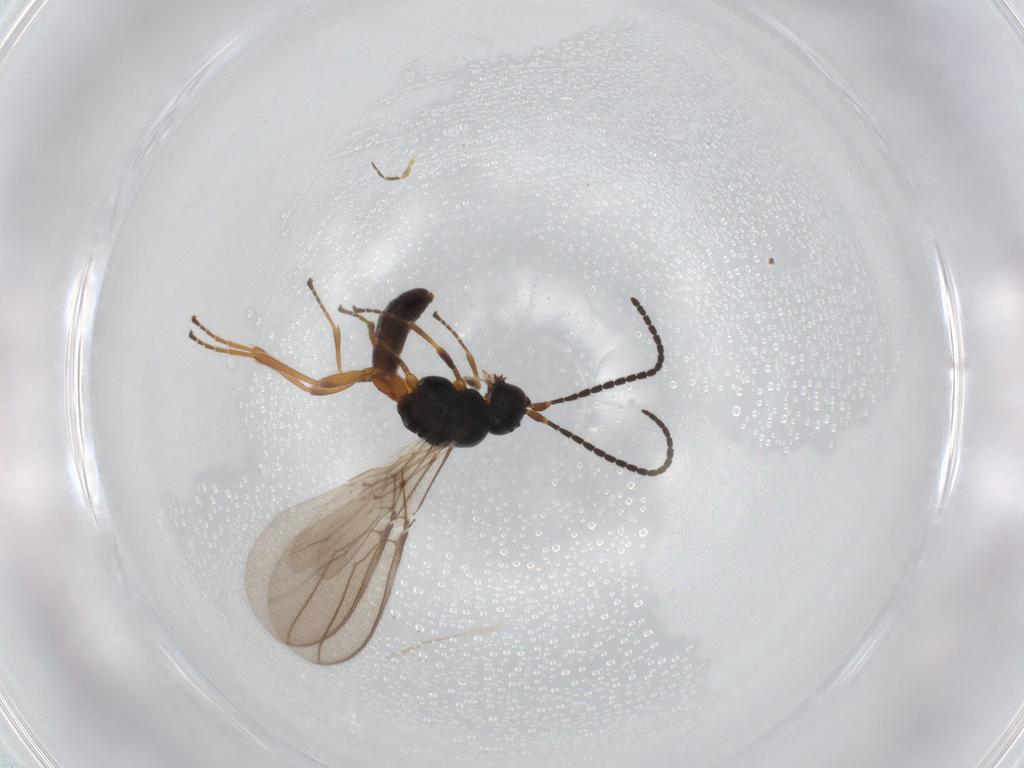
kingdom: Animalia
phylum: Arthropoda
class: Insecta
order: Hymenoptera
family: Braconidae
